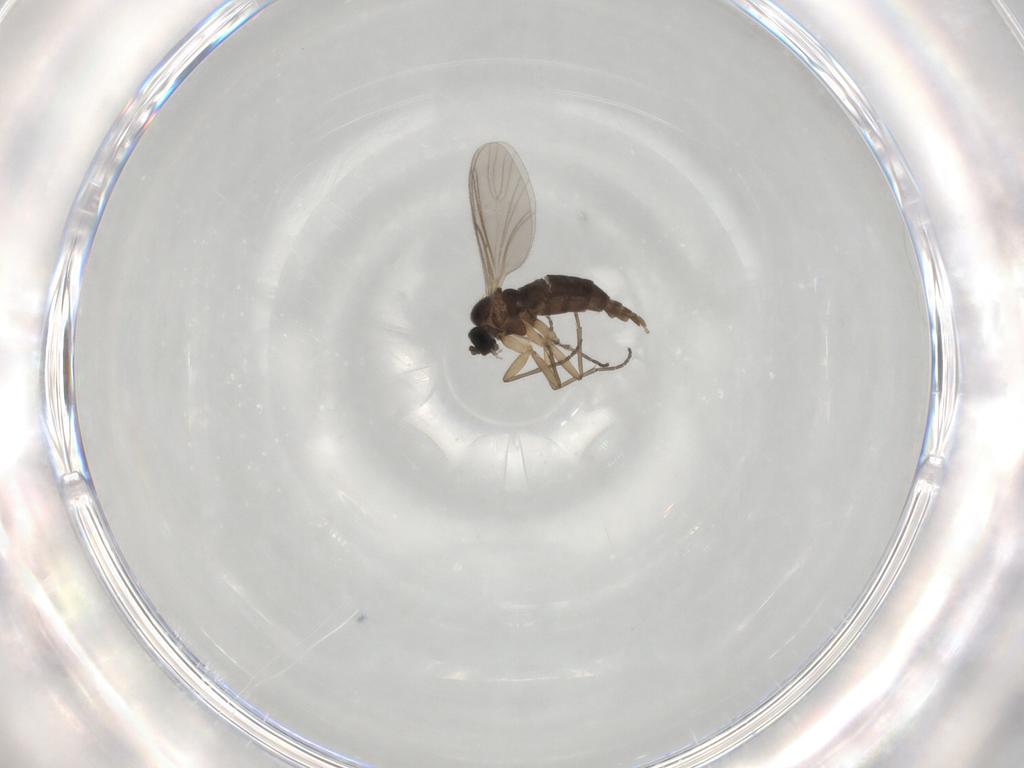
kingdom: Animalia
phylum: Arthropoda
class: Insecta
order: Diptera
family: Sciaridae
